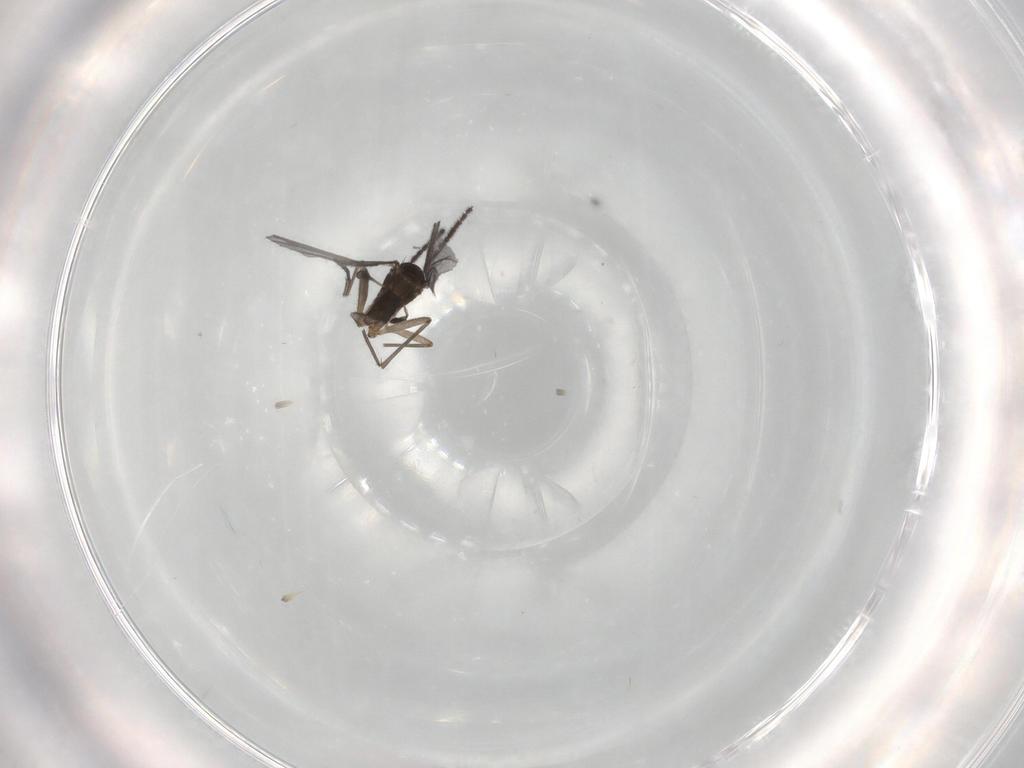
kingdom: Animalia
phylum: Arthropoda
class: Insecta
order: Diptera
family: Sciaridae
